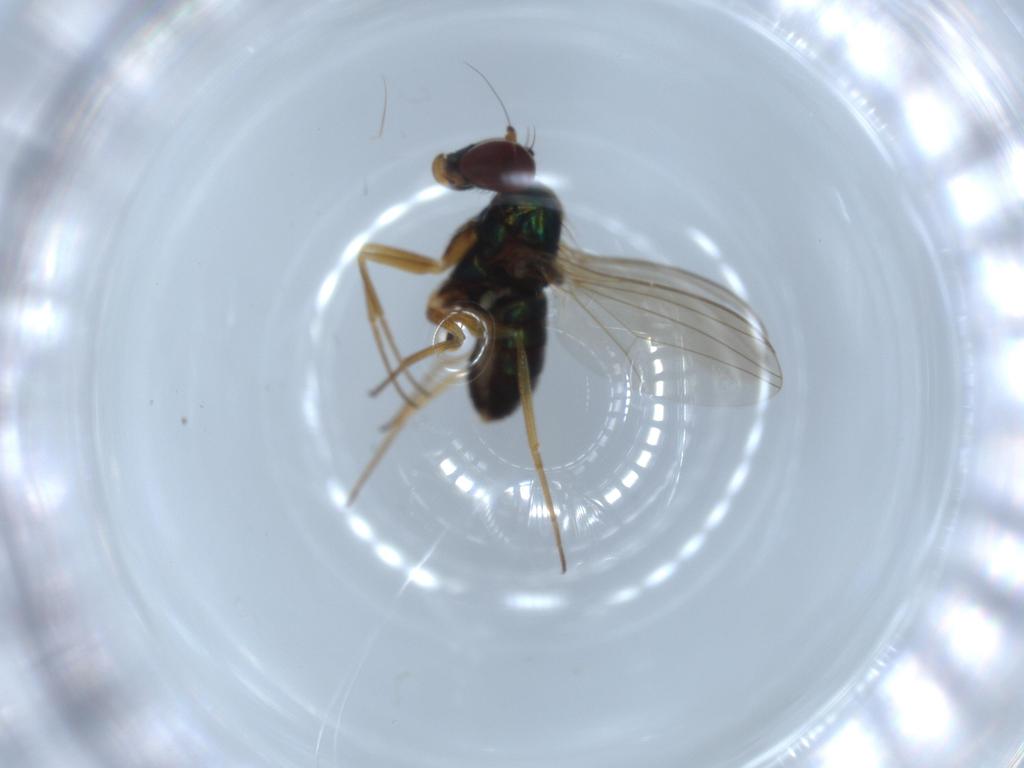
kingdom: Animalia
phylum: Arthropoda
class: Insecta
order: Diptera
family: Dolichopodidae
